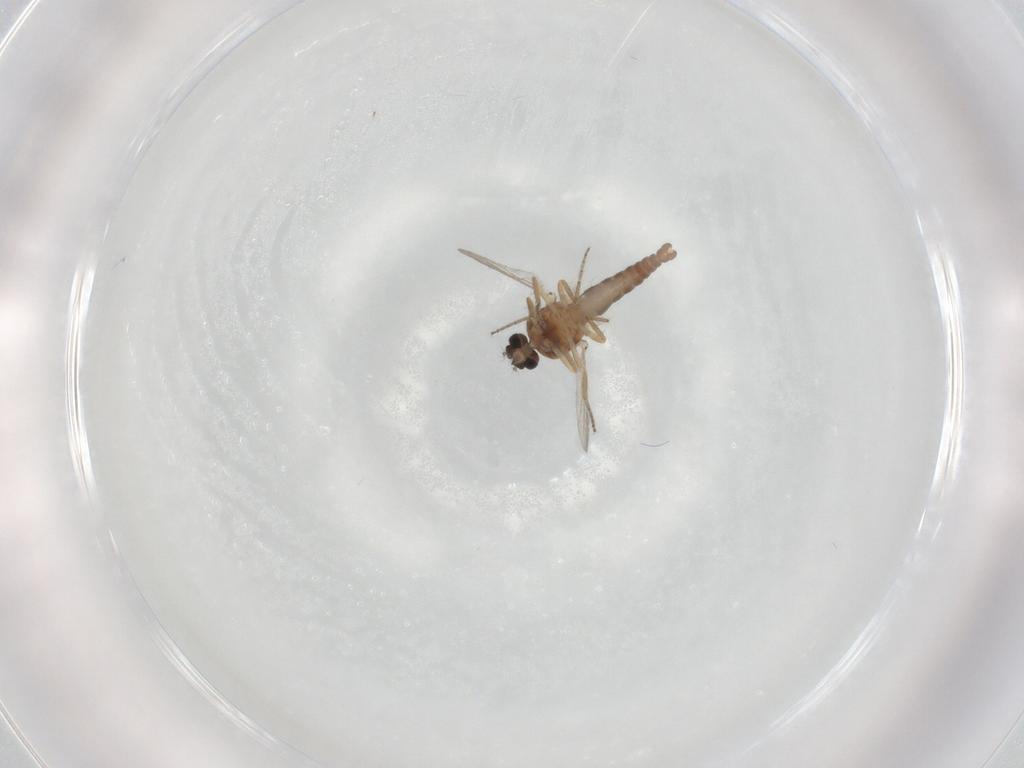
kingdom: Animalia
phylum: Arthropoda
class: Insecta
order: Diptera
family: Ceratopogonidae
